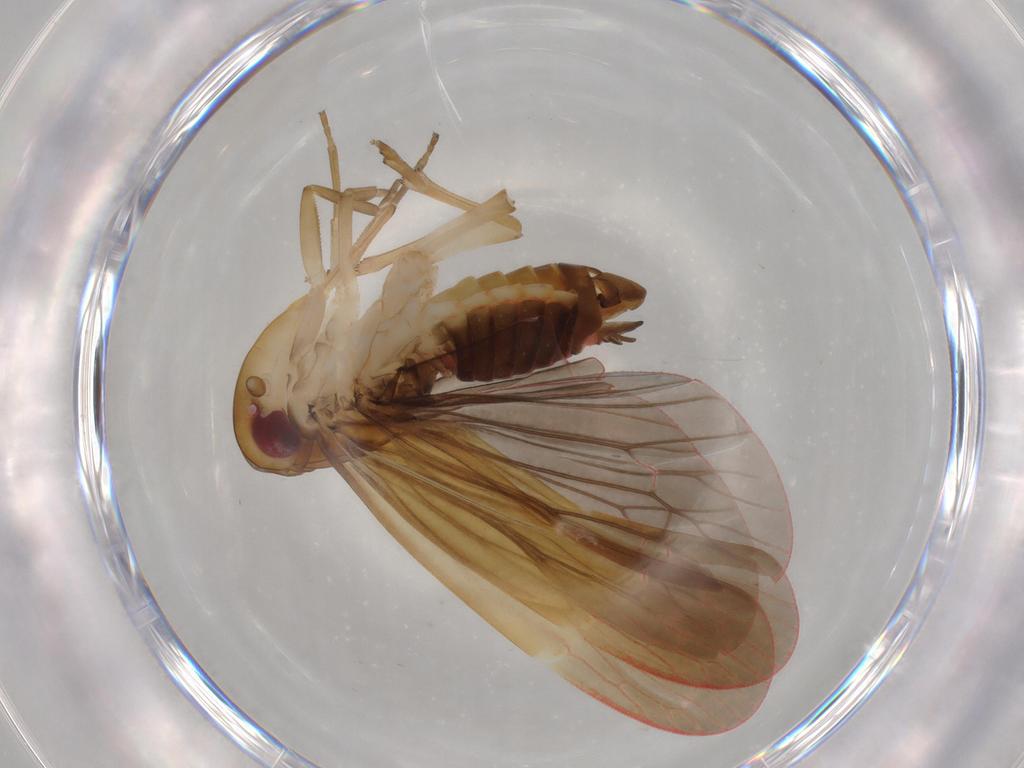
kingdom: Animalia
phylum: Arthropoda
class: Insecta
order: Hemiptera
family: Achilidae
